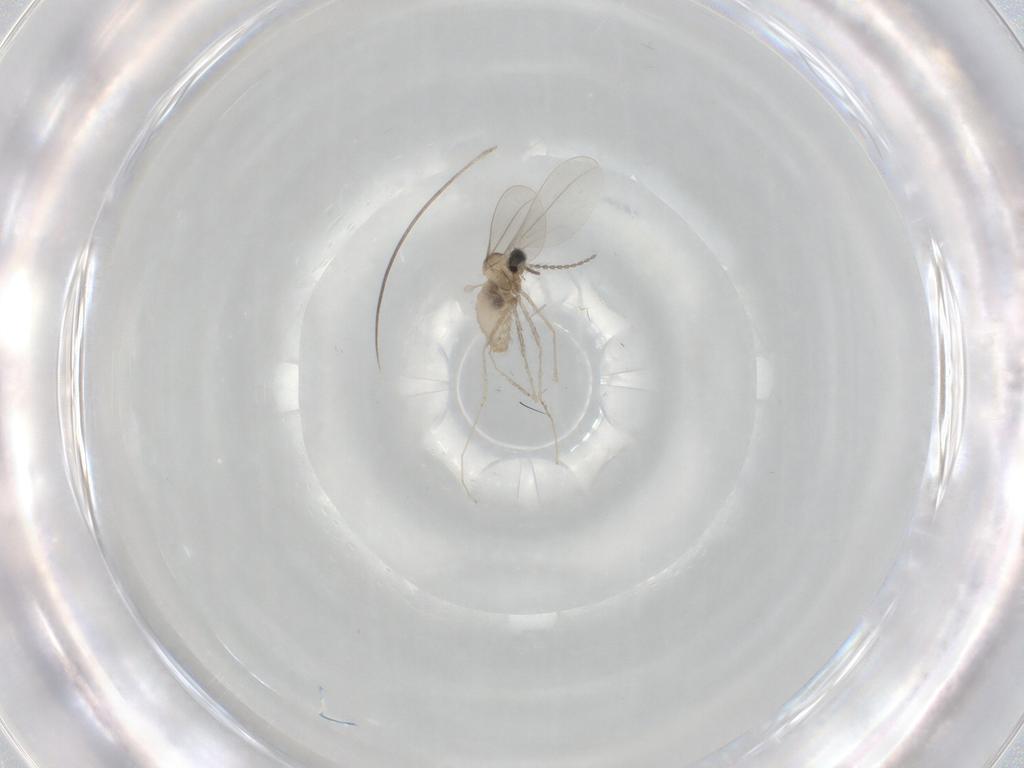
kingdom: Animalia
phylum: Arthropoda
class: Insecta
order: Diptera
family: Cecidomyiidae
